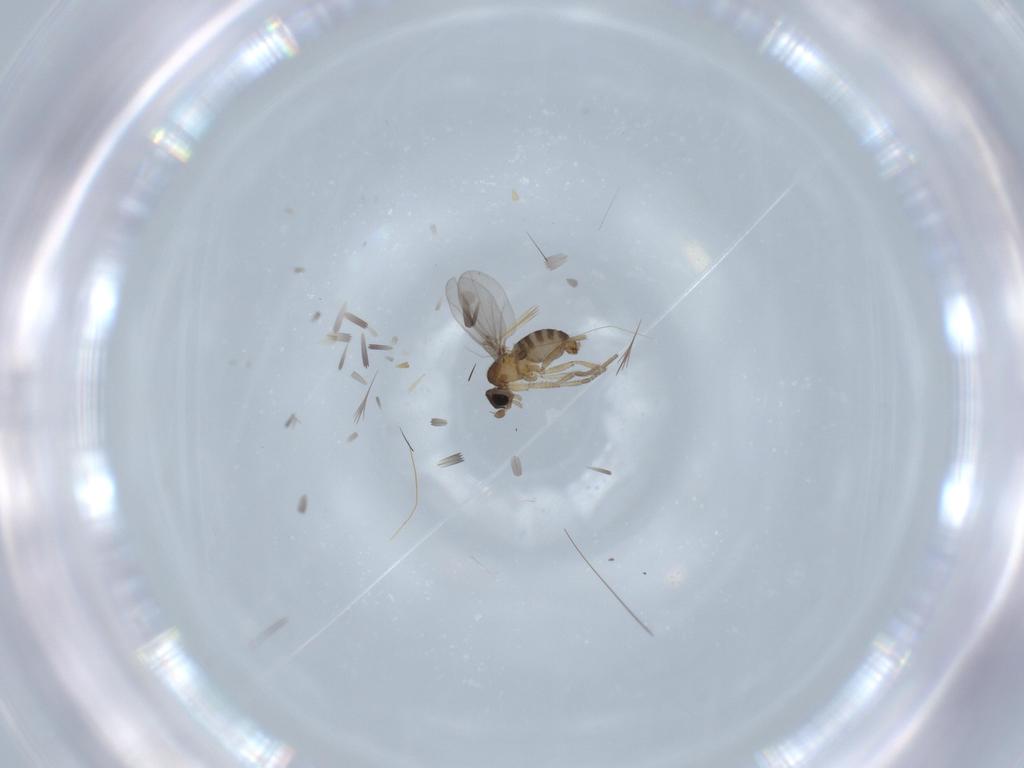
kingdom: Animalia
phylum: Arthropoda
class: Insecta
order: Diptera
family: Phoridae
